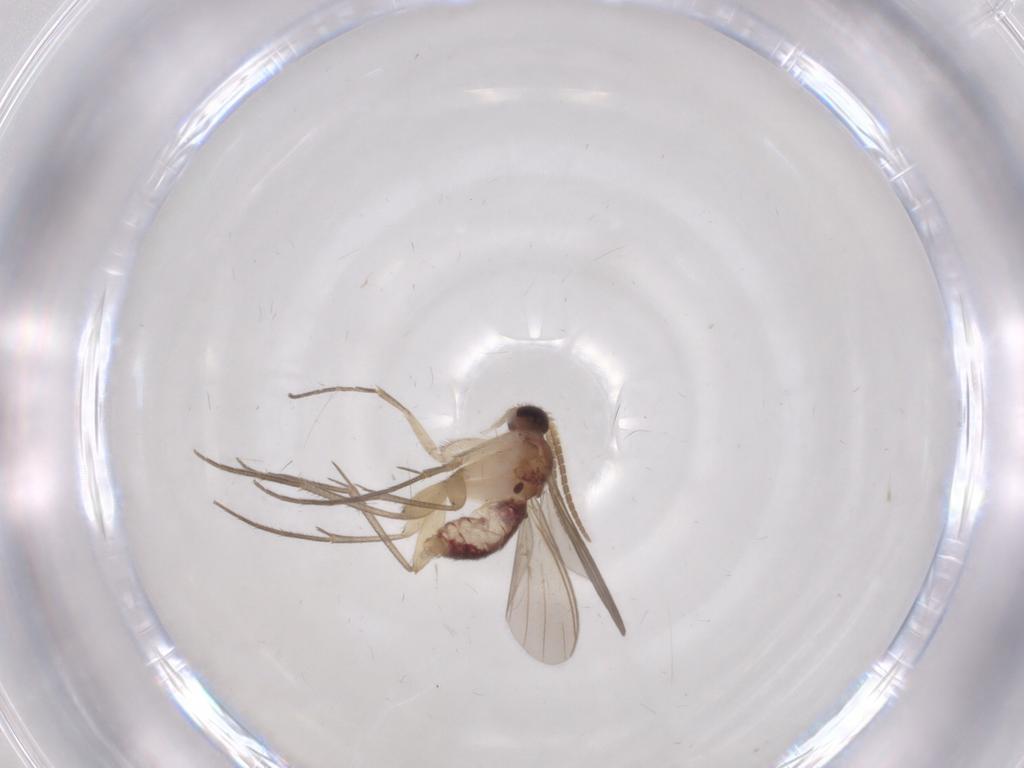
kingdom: Animalia
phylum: Arthropoda
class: Insecta
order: Diptera
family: Mycetophilidae
